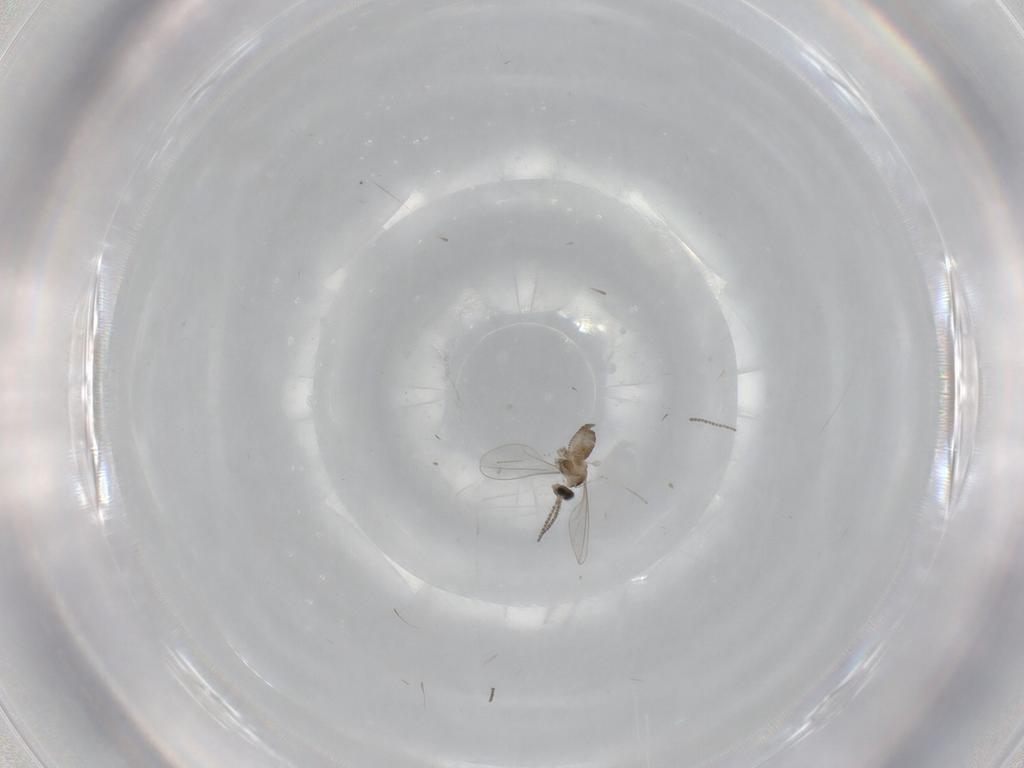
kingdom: Animalia
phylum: Arthropoda
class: Insecta
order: Diptera
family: Cecidomyiidae
